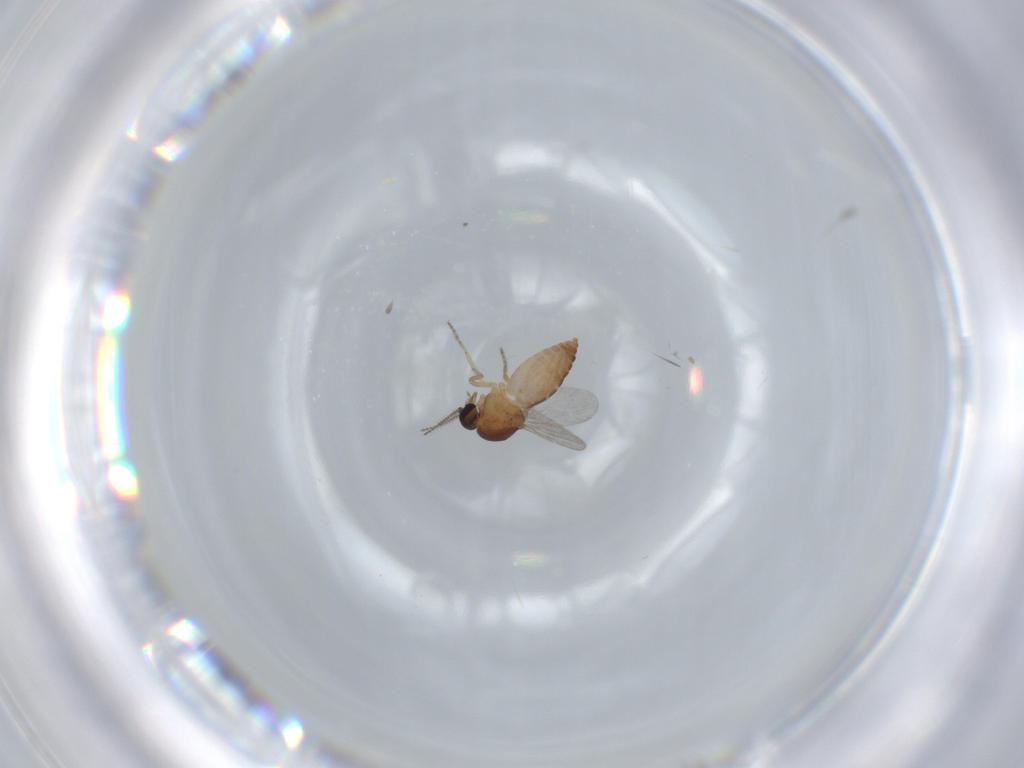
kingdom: Animalia
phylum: Arthropoda
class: Insecta
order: Diptera
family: Ceratopogonidae
